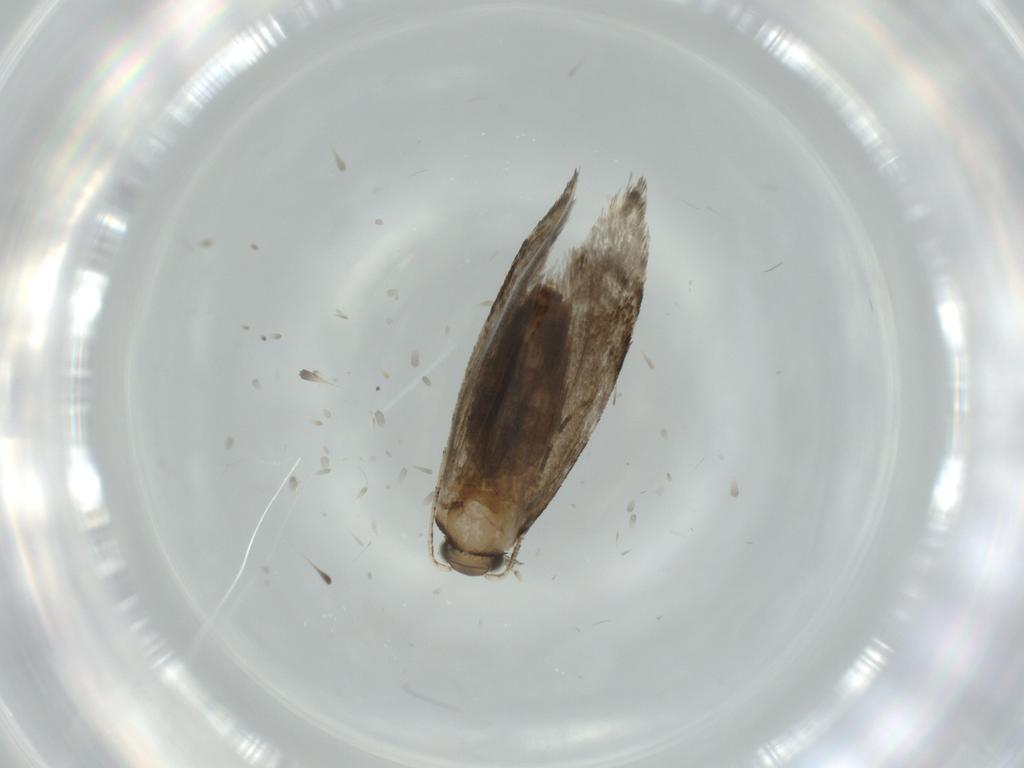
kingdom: Animalia
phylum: Arthropoda
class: Insecta
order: Lepidoptera
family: Tineidae
